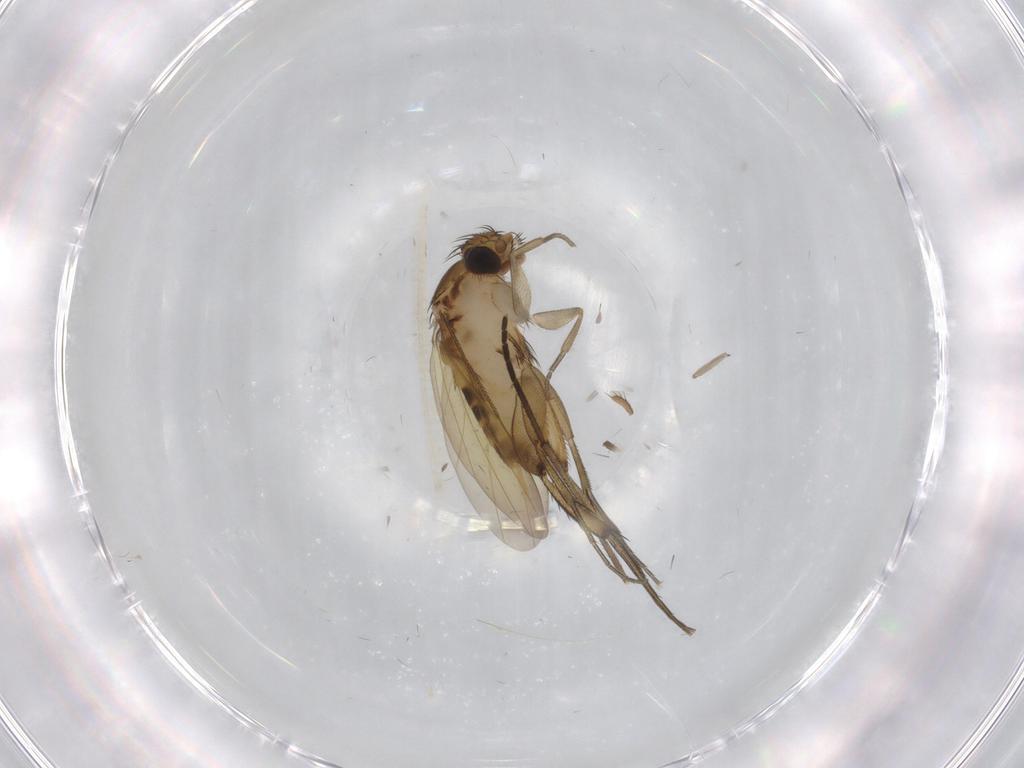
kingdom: Animalia
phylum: Arthropoda
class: Insecta
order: Diptera
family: Phoridae
